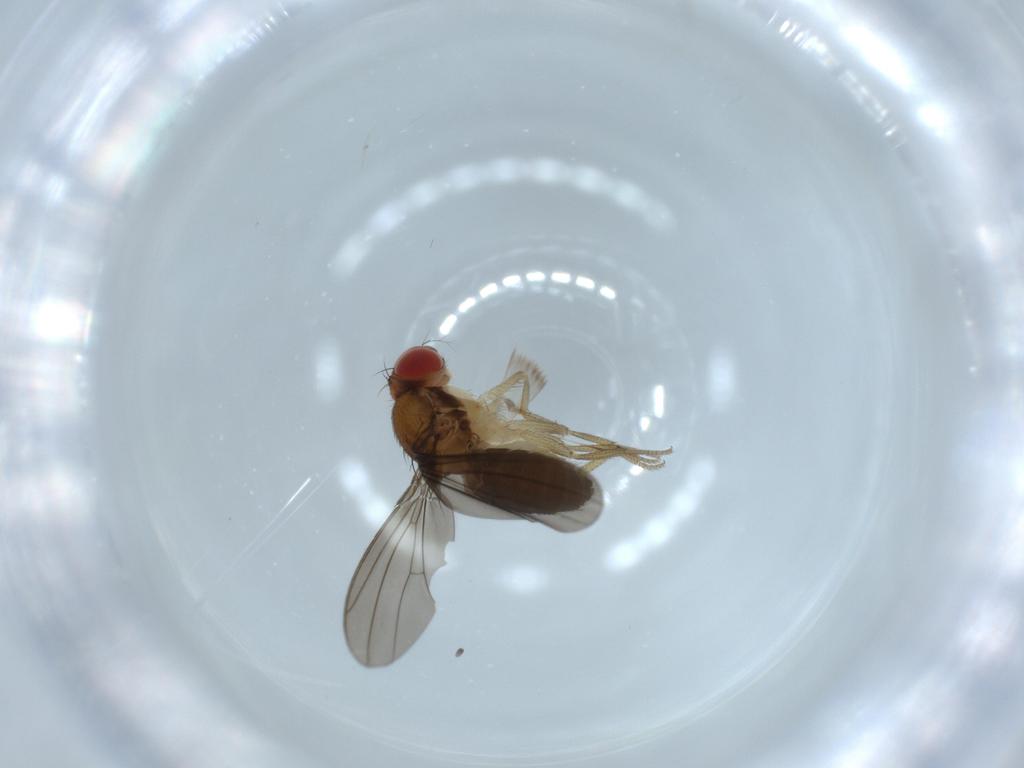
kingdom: Animalia
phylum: Arthropoda
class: Insecta
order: Diptera
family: Drosophilidae
